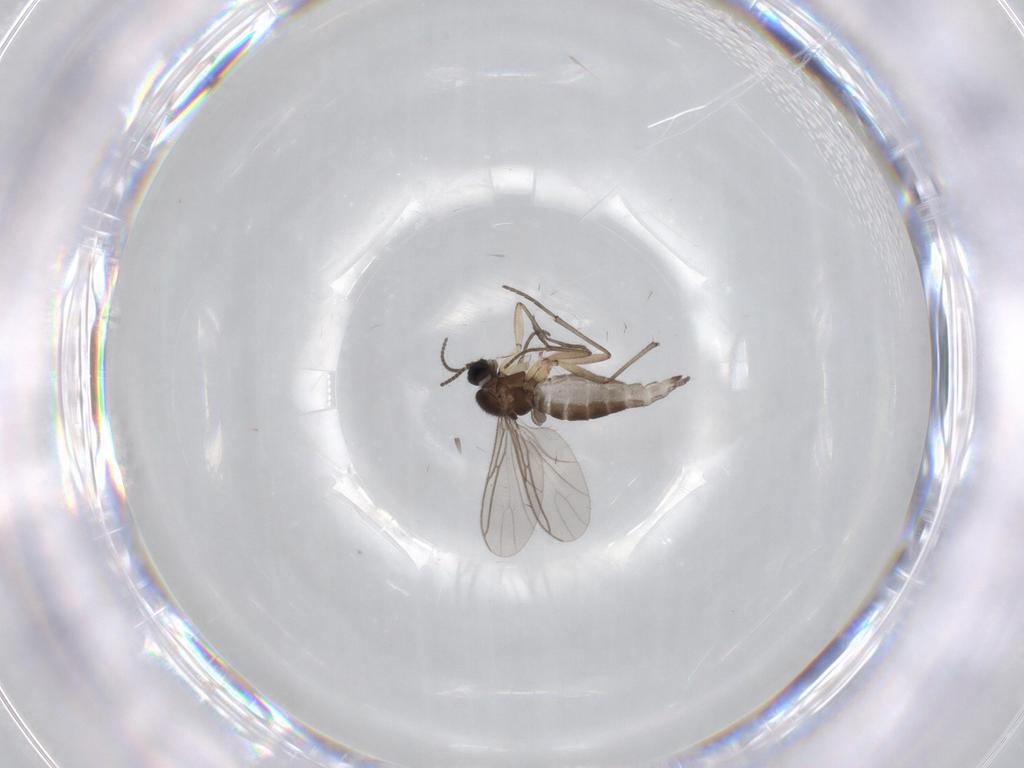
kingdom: Animalia
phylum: Arthropoda
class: Insecta
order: Diptera
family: Sciaridae
